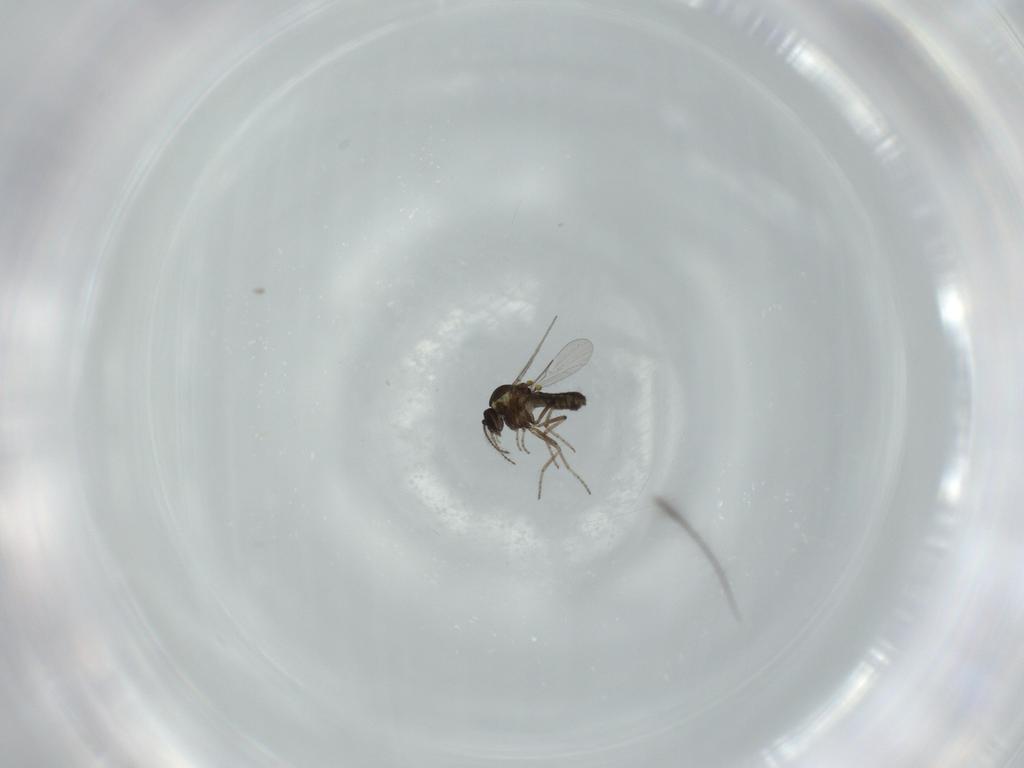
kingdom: Animalia
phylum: Arthropoda
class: Insecta
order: Diptera
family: Ceratopogonidae
